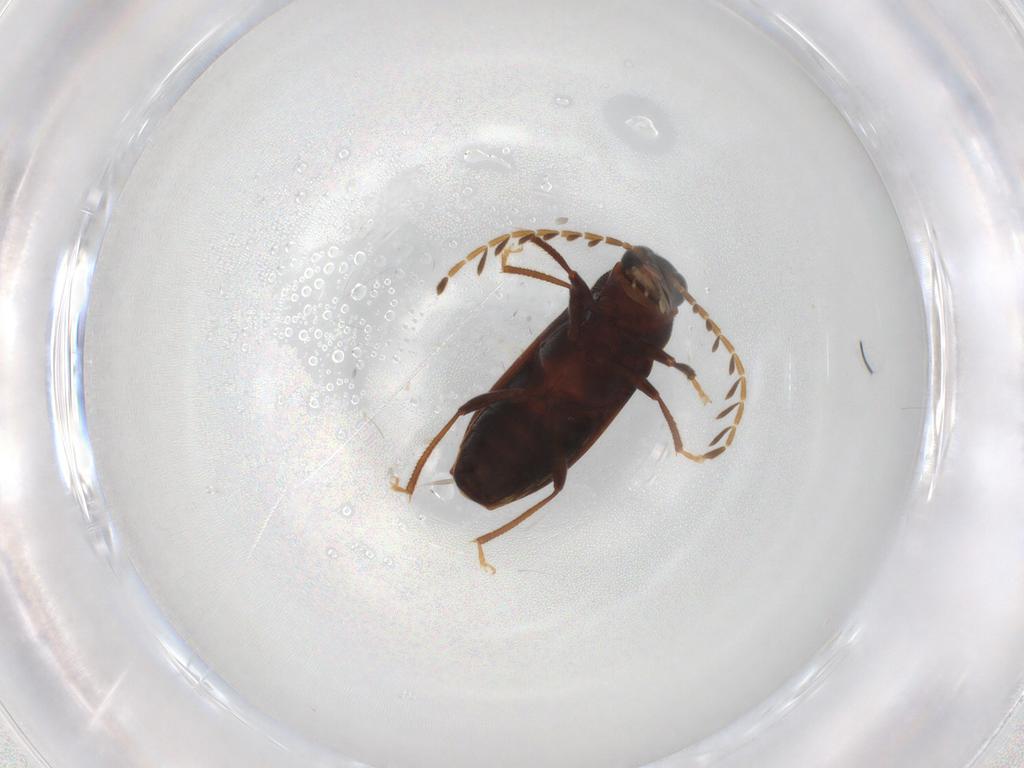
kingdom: Animalia
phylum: Arthropoda
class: Insecta
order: Coleoptera
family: Ptilodactylidae
